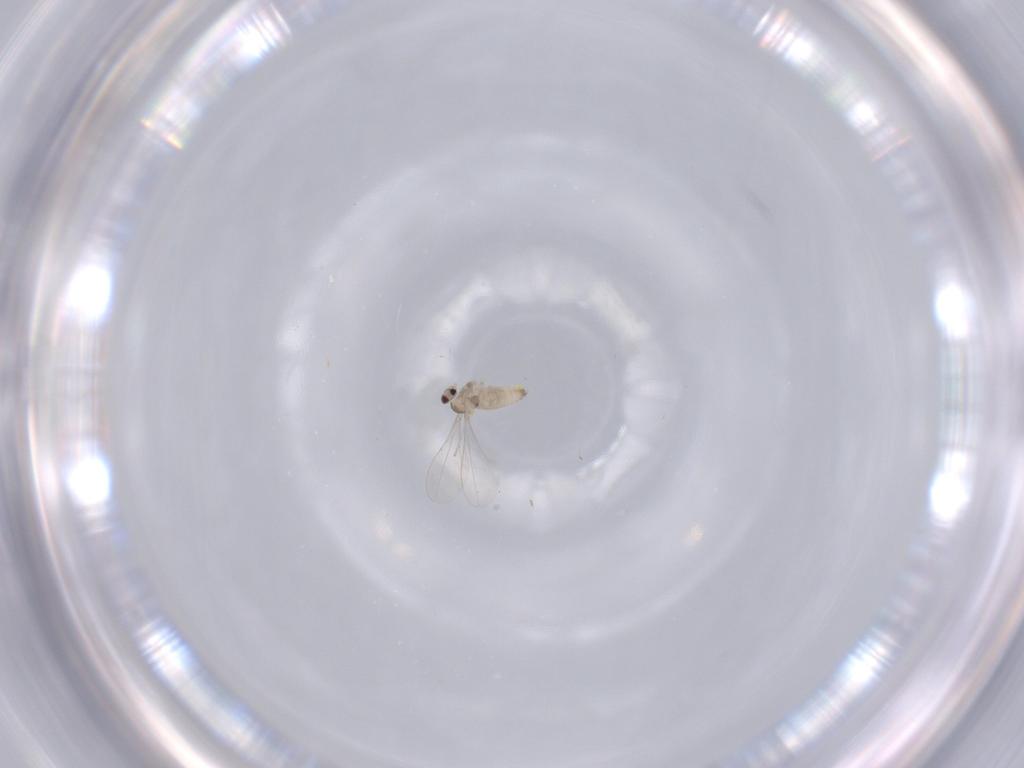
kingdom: Animalia
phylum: Arthropoda
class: Insecta
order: Diptera
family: Cecidomyiidae
